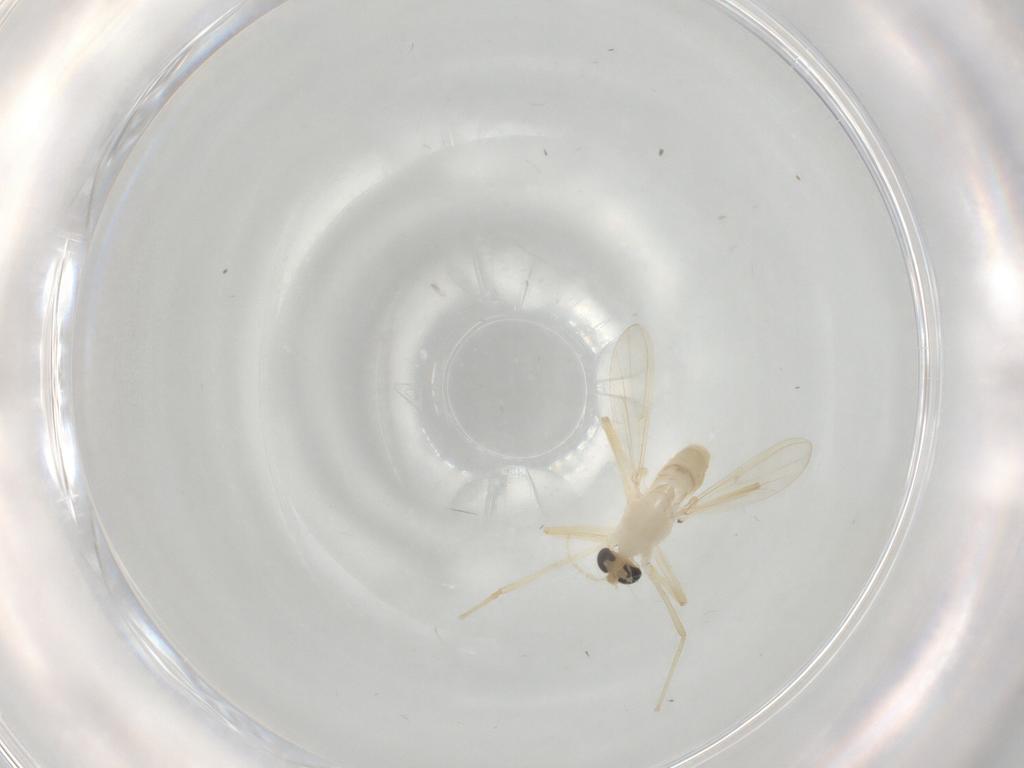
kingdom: Animalia
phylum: Arthropoda
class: Insecta
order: Diptera
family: Chironomidae
